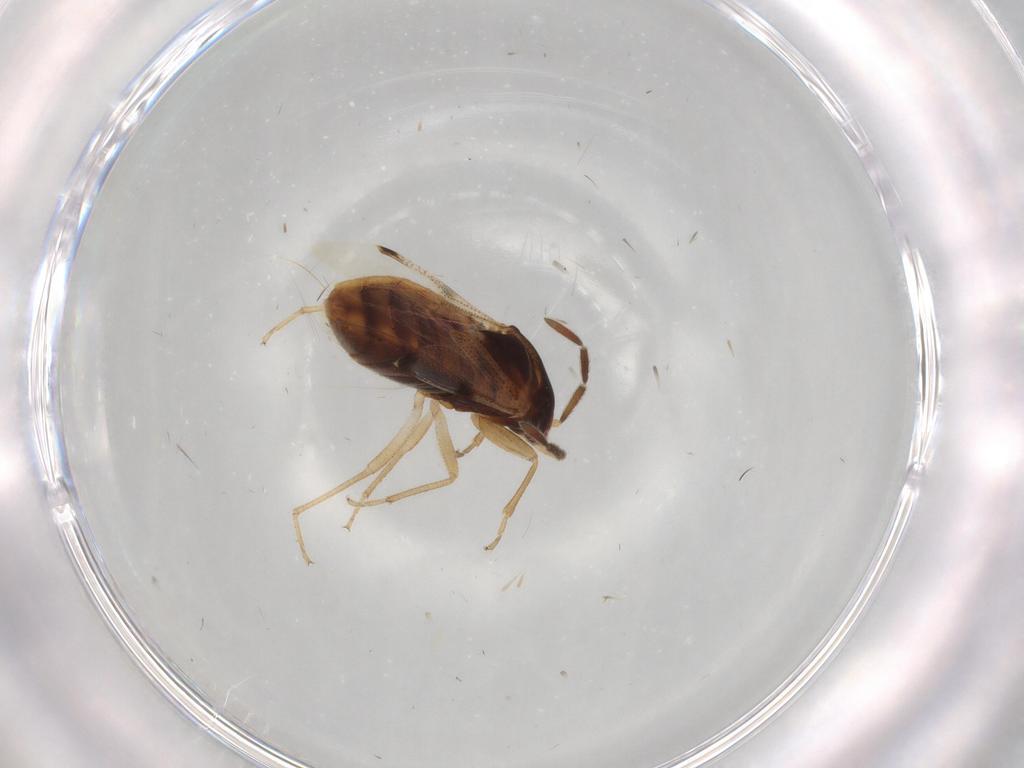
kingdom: Animalia
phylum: Arthropoda
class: Insecta
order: Hemiptera
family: Rhyparochromidae
